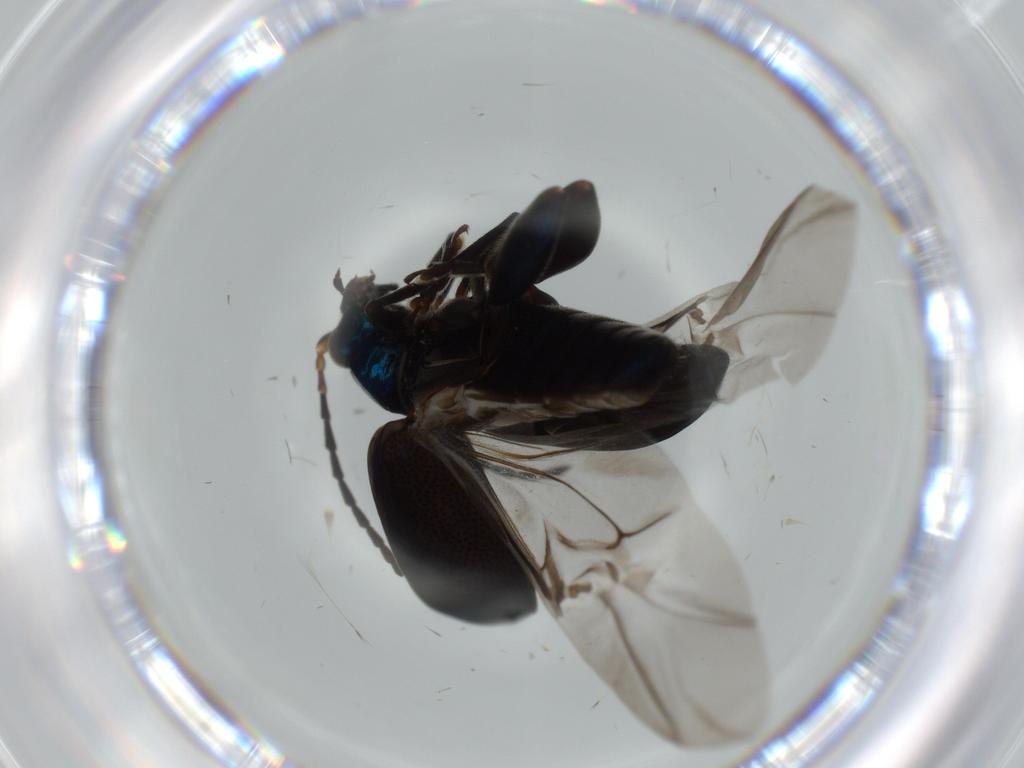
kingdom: Animalia
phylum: Arthropoda
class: Insecta
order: Coleoptera
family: Chrysomelidae
